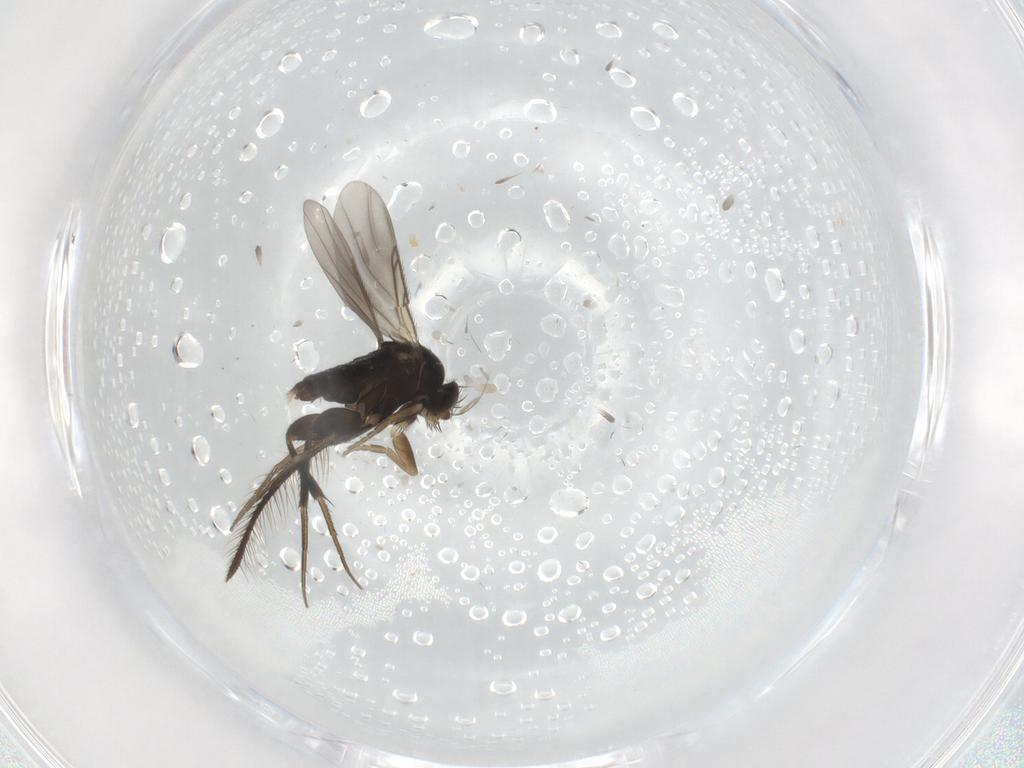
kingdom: Animalia
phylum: Arthropoda
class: Insecta
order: Diptera
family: Phoridae
